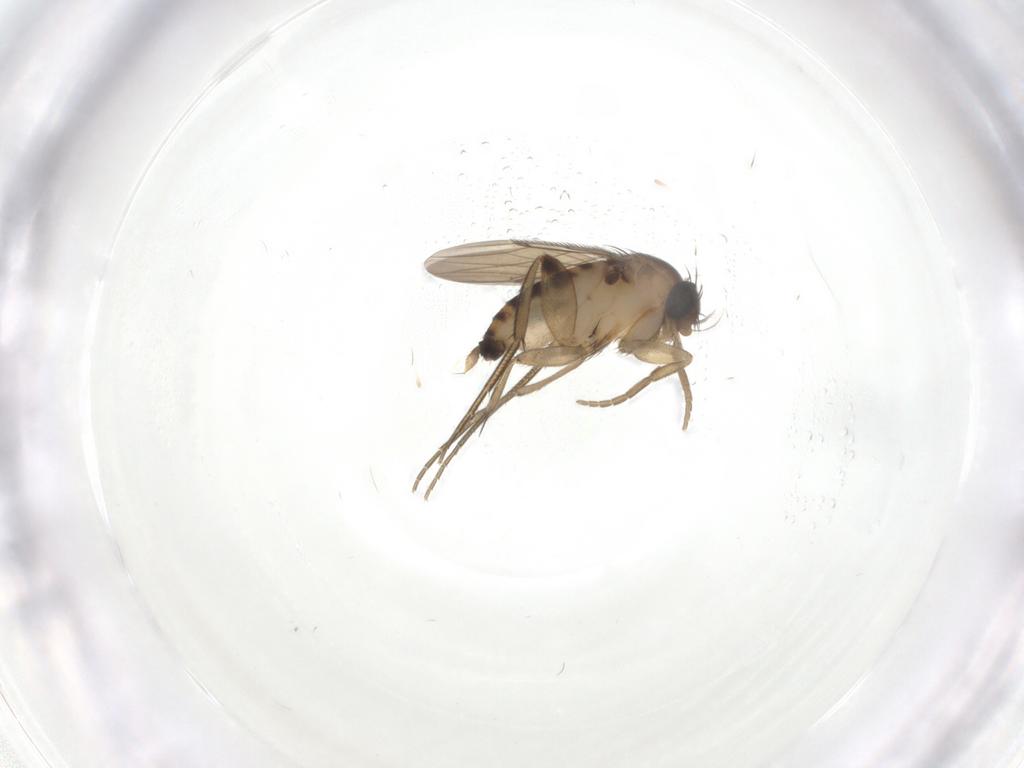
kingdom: Animalia
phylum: Arthropoda
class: Insecta
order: Diptera
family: Phoridae
